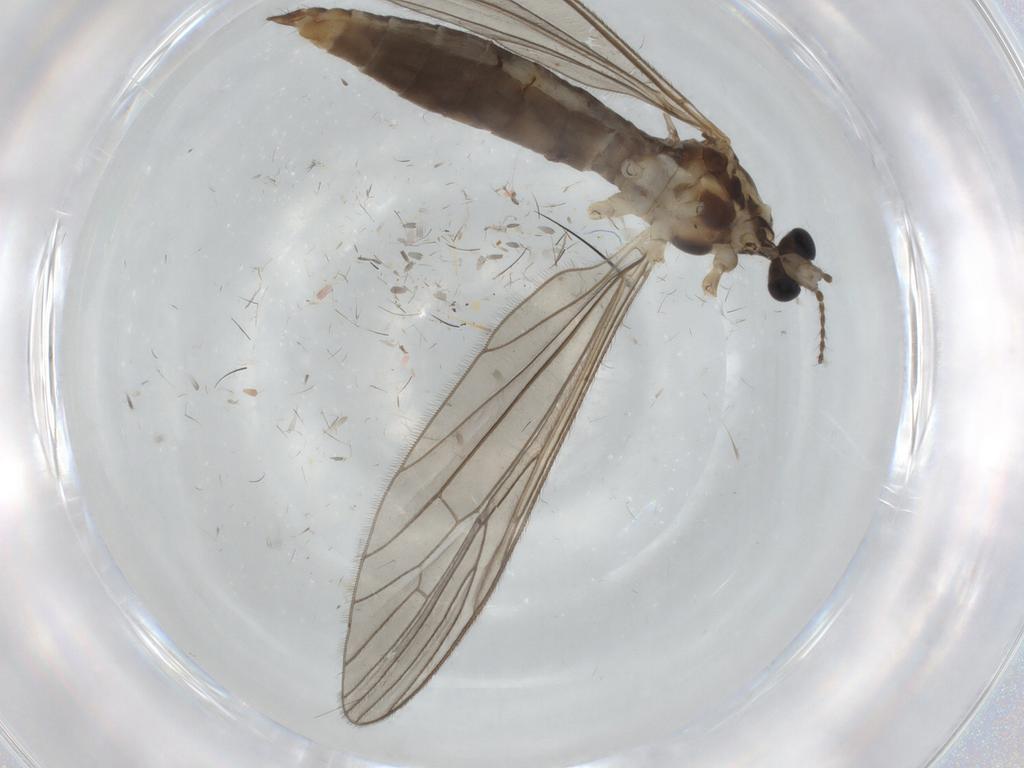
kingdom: Animalia
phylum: Arthropoda
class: Insecta
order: Diptera
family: Limoniidae
